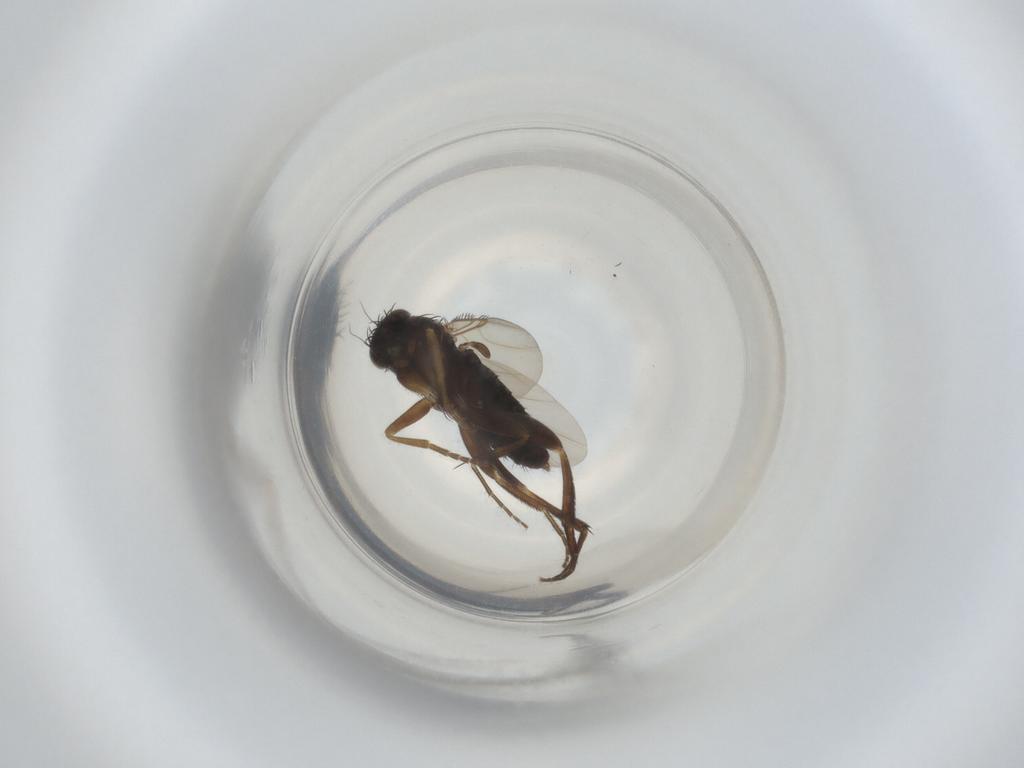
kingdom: Animalia
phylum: Arthropoda
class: Insecta
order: Diptera
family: Phoridae
